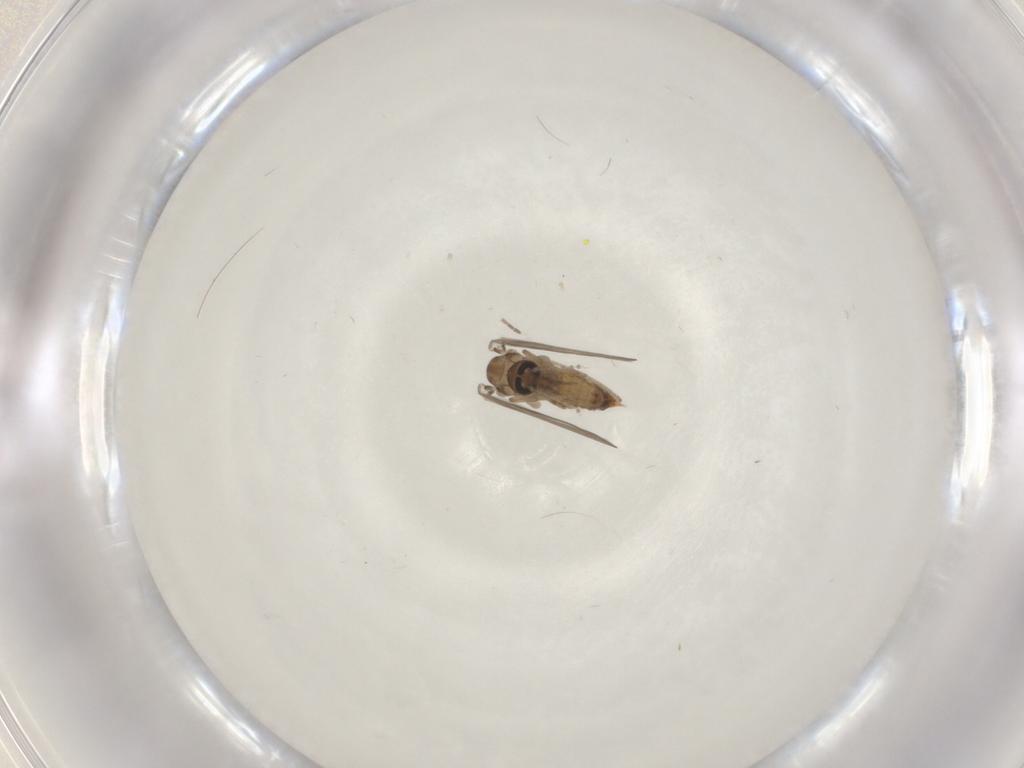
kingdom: Animalia
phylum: Arthropoda
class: Insecta
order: Diptera
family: Psychodidae
